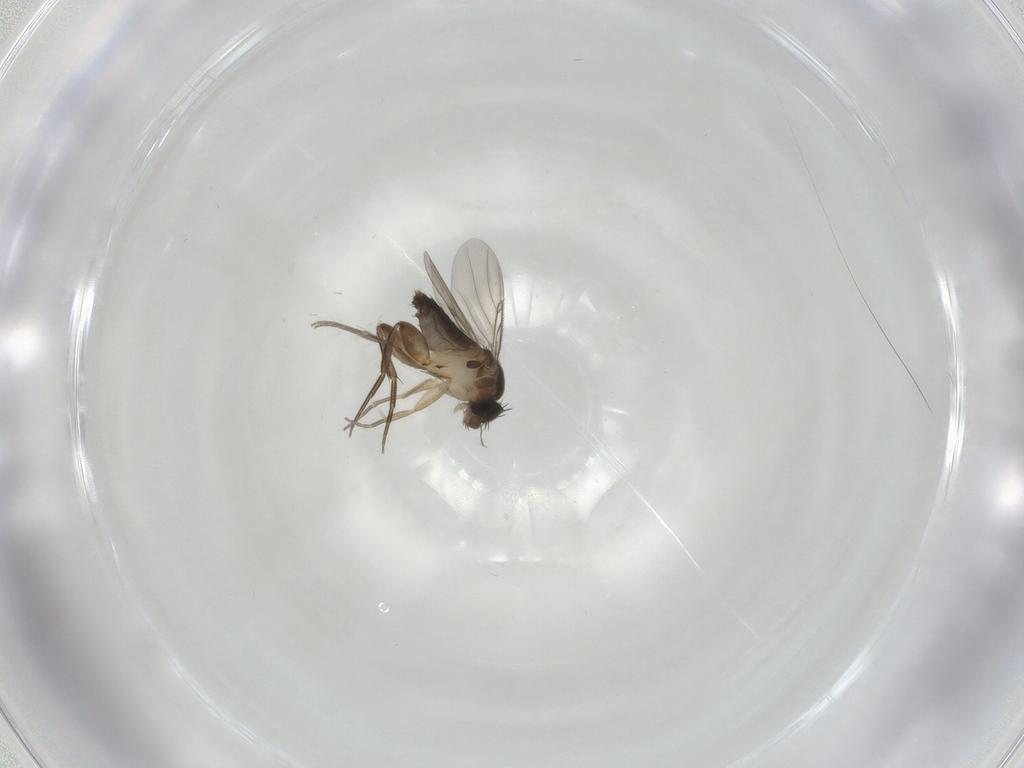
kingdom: Animalia
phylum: Arthropoda
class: Insecta
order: Diptera
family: Phoridae
